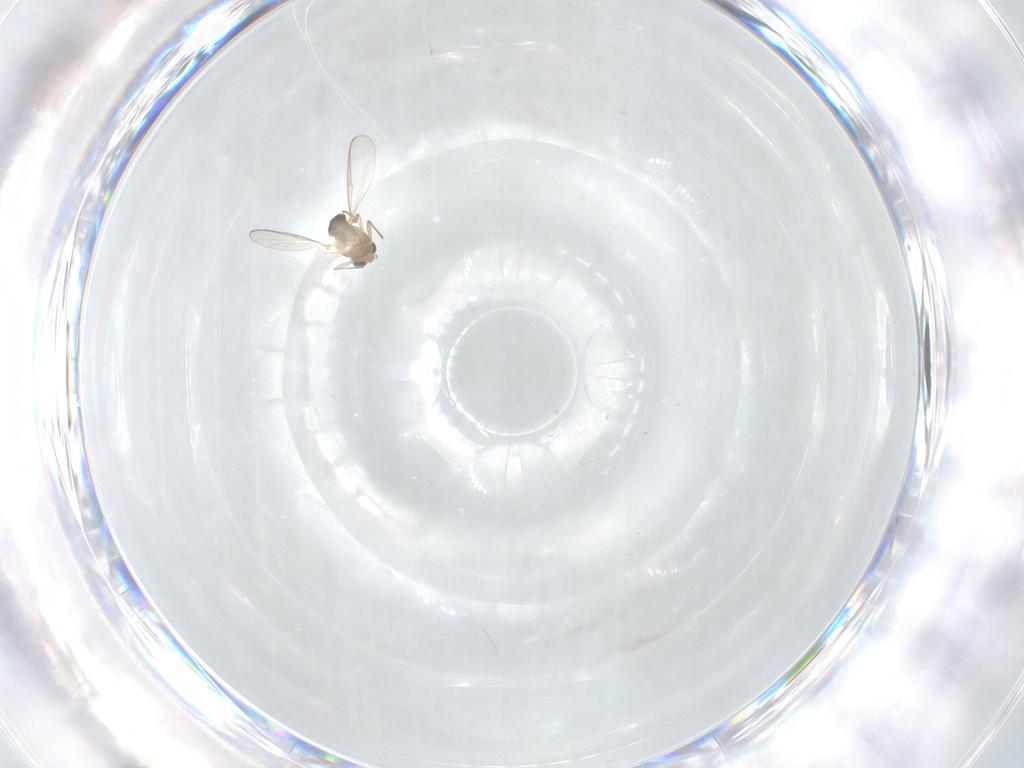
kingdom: Animalia
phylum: Arthropoda
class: Insecta
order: Diptera
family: Chironomidae
